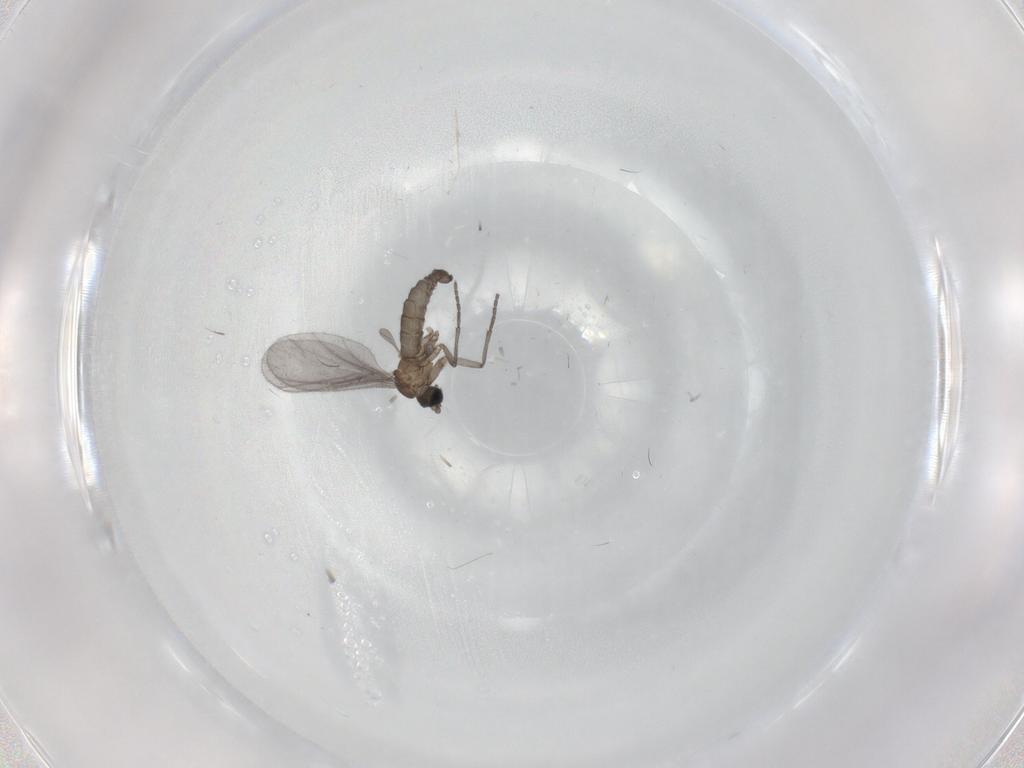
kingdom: Animalia
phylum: Arthropoda
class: Insecta
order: Diptera
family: Sciaridae
